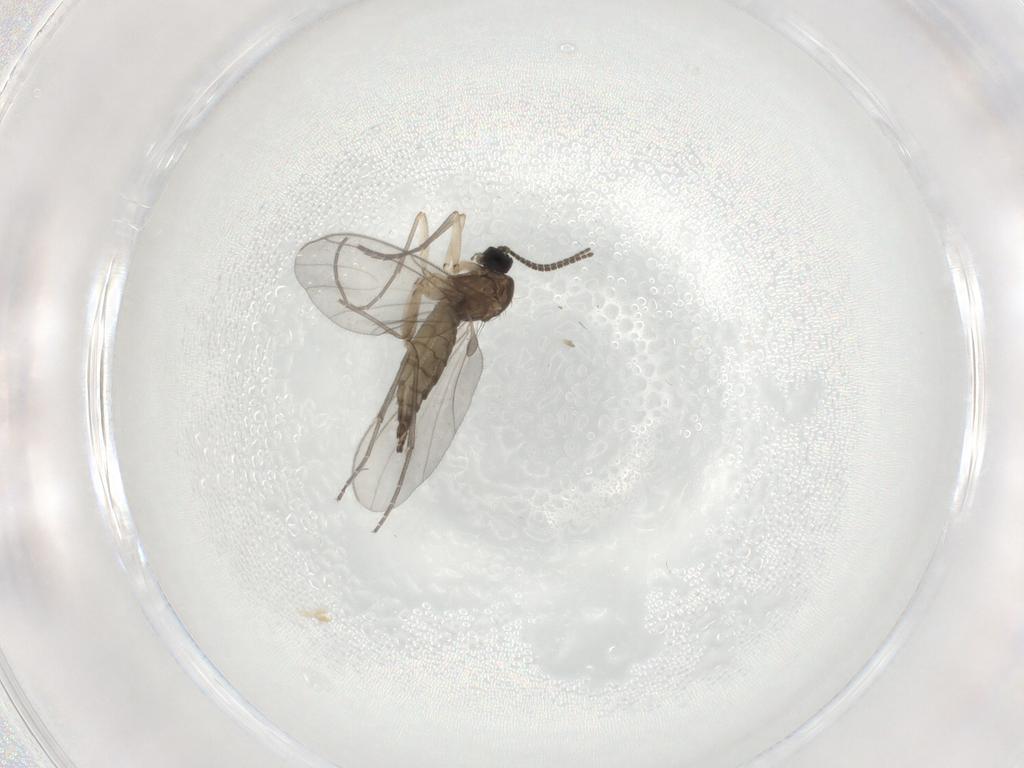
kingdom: Animalia
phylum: Arthropoda
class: Insecta
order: Diptera
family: Sciaridae
